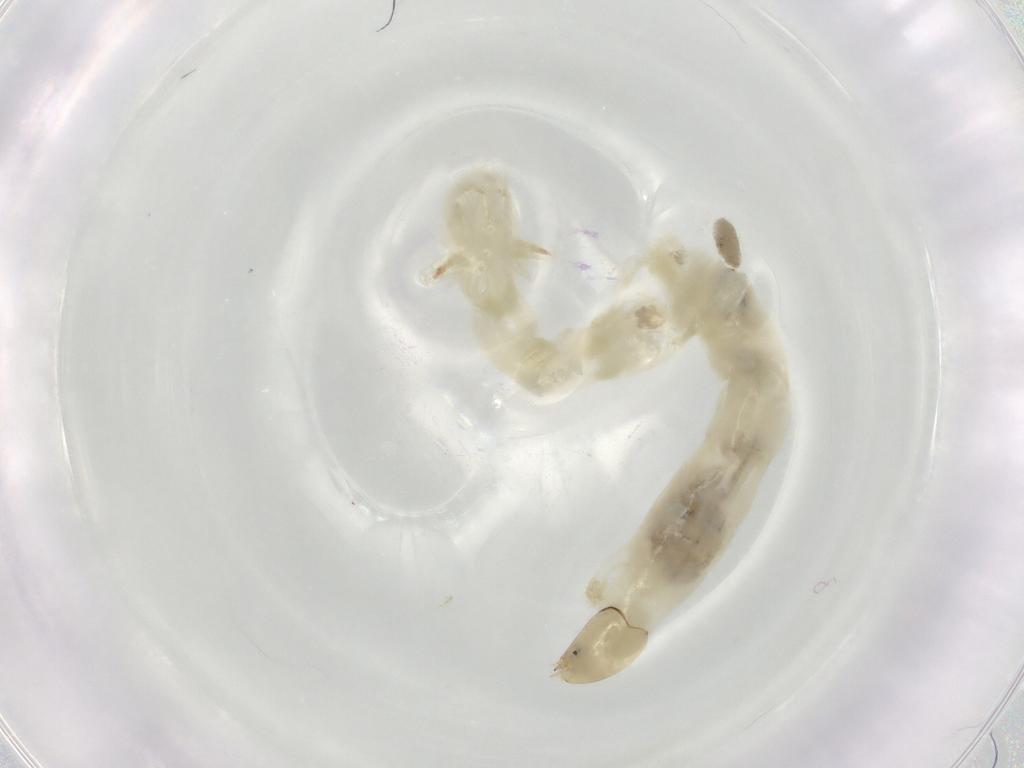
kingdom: Animalia
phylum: Arthropoda
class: Insecta
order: Diptera
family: Chironomidae
